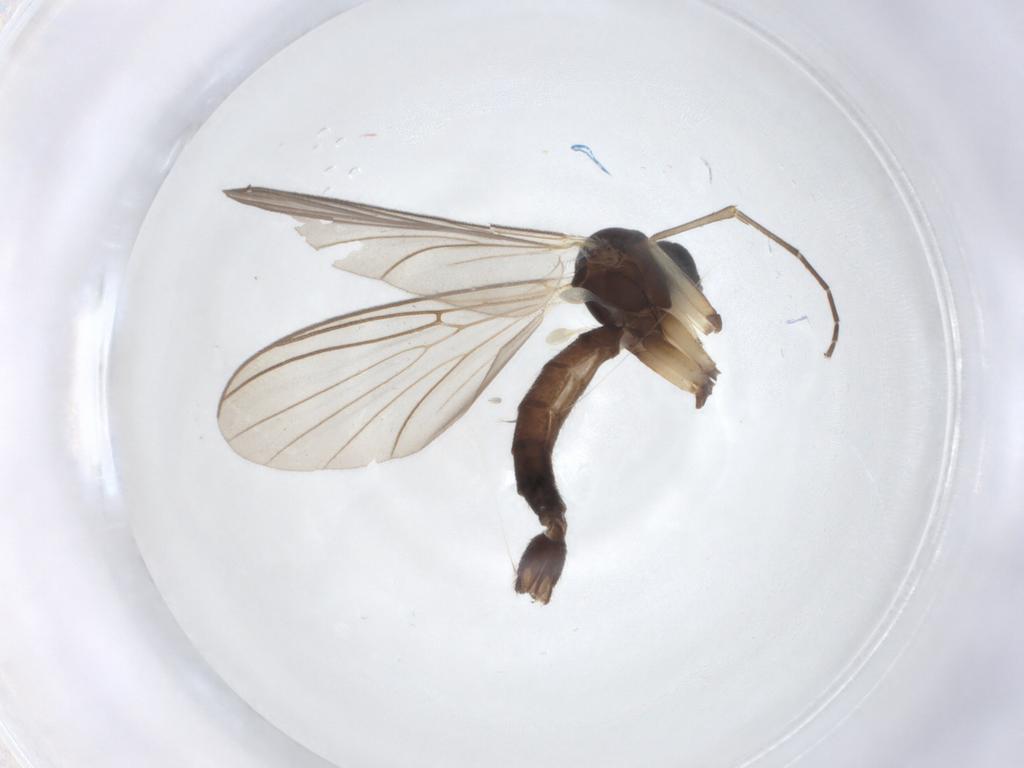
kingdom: Animalia
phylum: Arthropoda
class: Insecta
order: Diptera
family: Mycetophilidae
